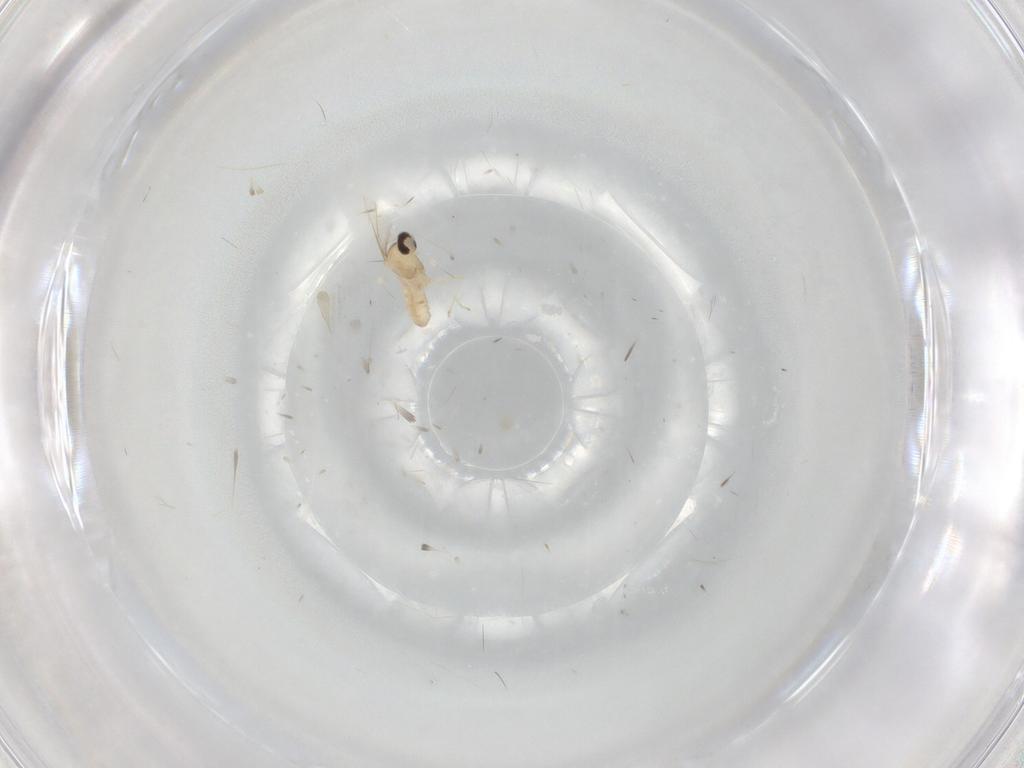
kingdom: Animalia
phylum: Arthropoda
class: Insecta
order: Diptera
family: Cecidomyiidae
